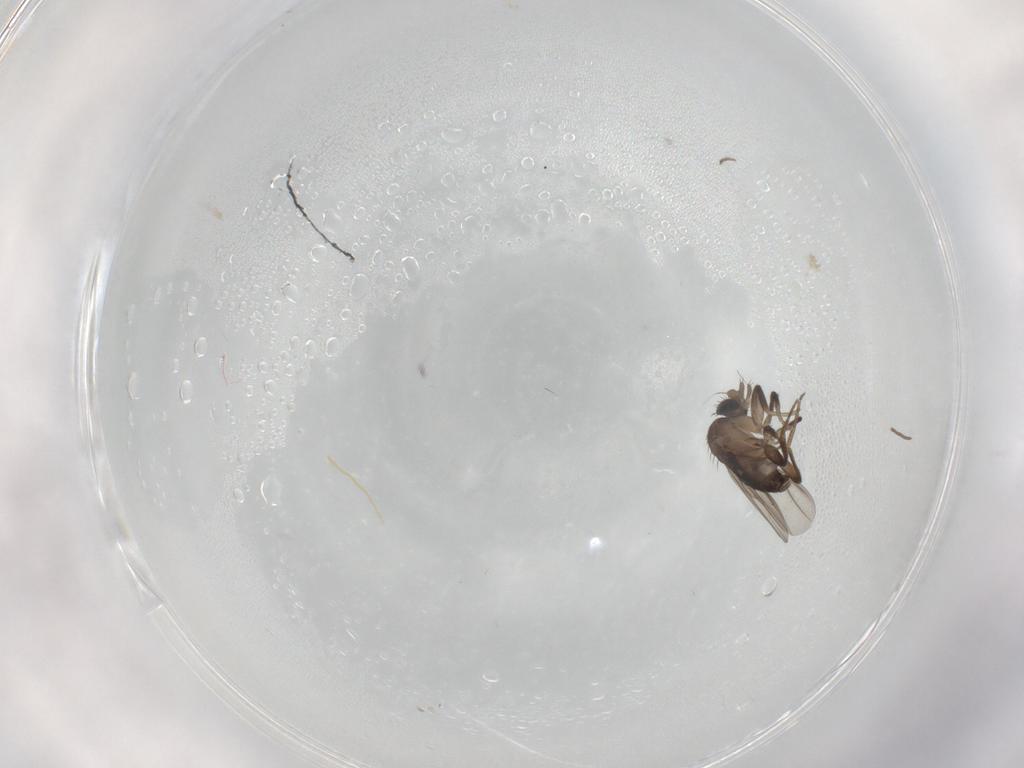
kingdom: Animalia
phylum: Arthropoda
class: Insecta
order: Diptera
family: Phoridae
